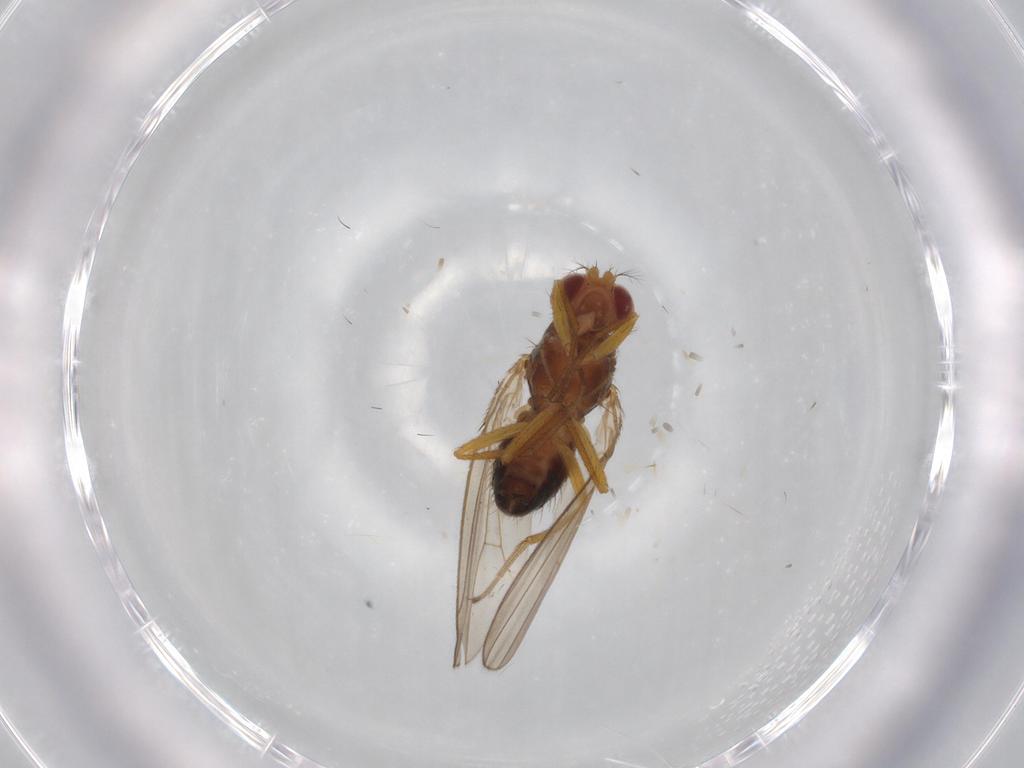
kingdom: Animalia
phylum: Arthropoda
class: Insecta
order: Diptera
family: Drosophilidae
